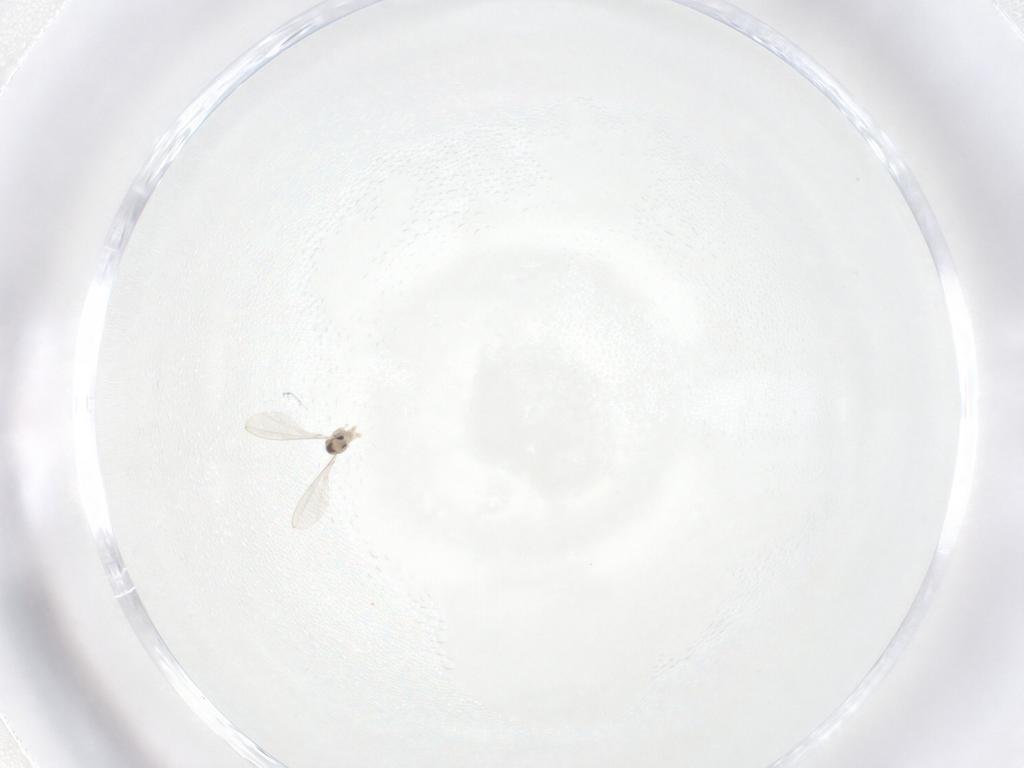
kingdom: Animalia
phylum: Arthropoda
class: Insecta
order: Diptera
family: Cecidomyiidae
